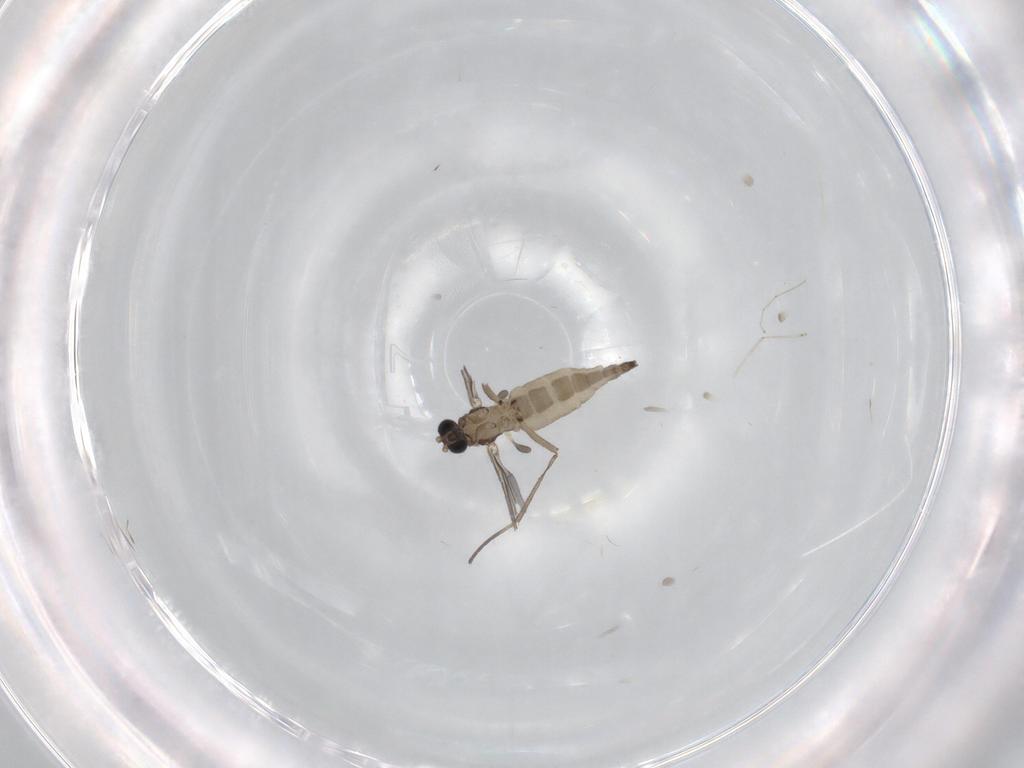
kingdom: Animalia
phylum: Arthropoda
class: Insecta
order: Diptera
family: Sciaridae
